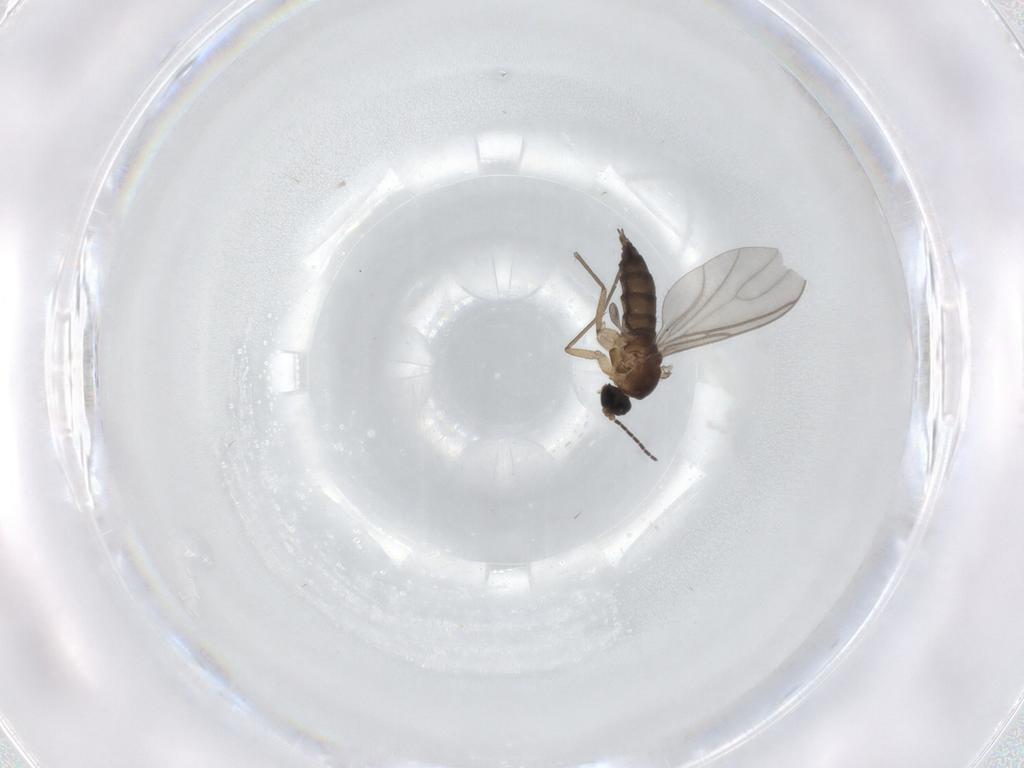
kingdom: Animalia
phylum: Arthropoda
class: Insecta
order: Diptera
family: Sciaridae
